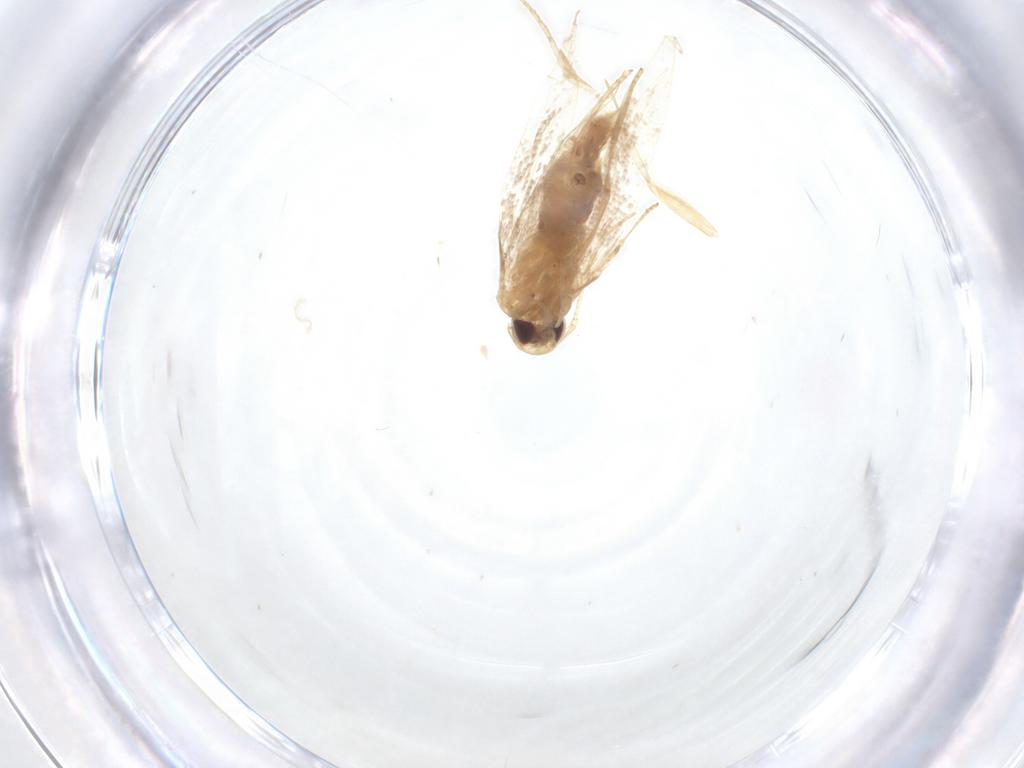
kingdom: Animalia
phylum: Arthropoda
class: Insecta
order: Lepidoptera
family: Cosmopterigidae
